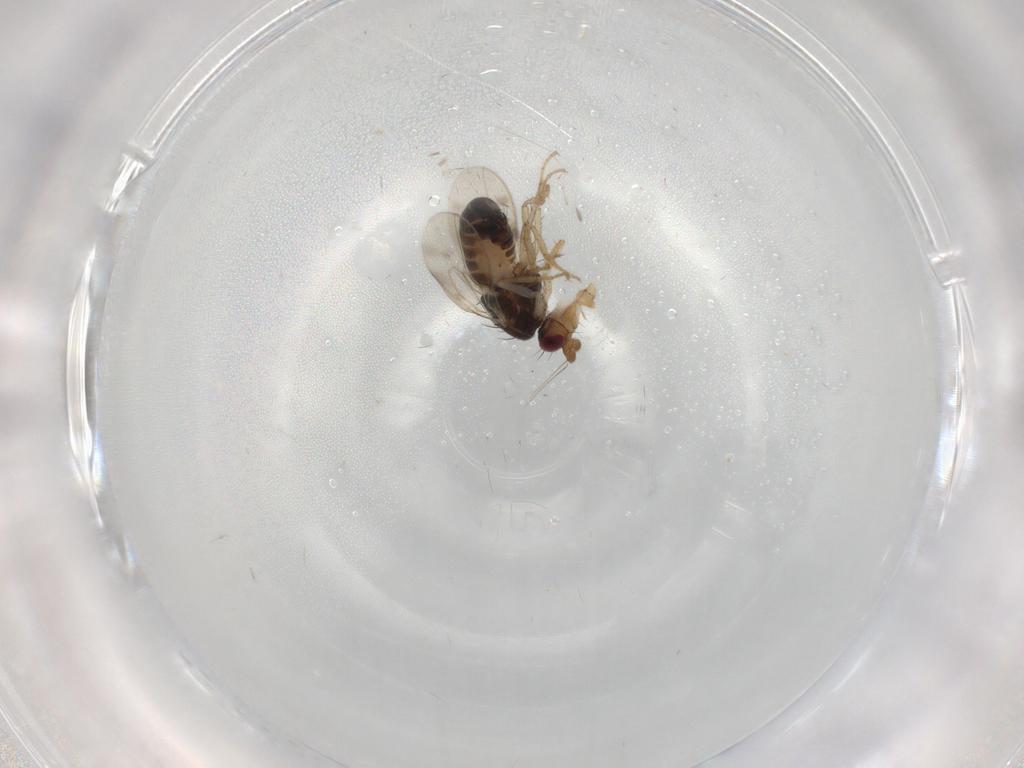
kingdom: Animalia
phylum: Arthropoda
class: Insecta
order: Diptera
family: Sphaeroceridae
